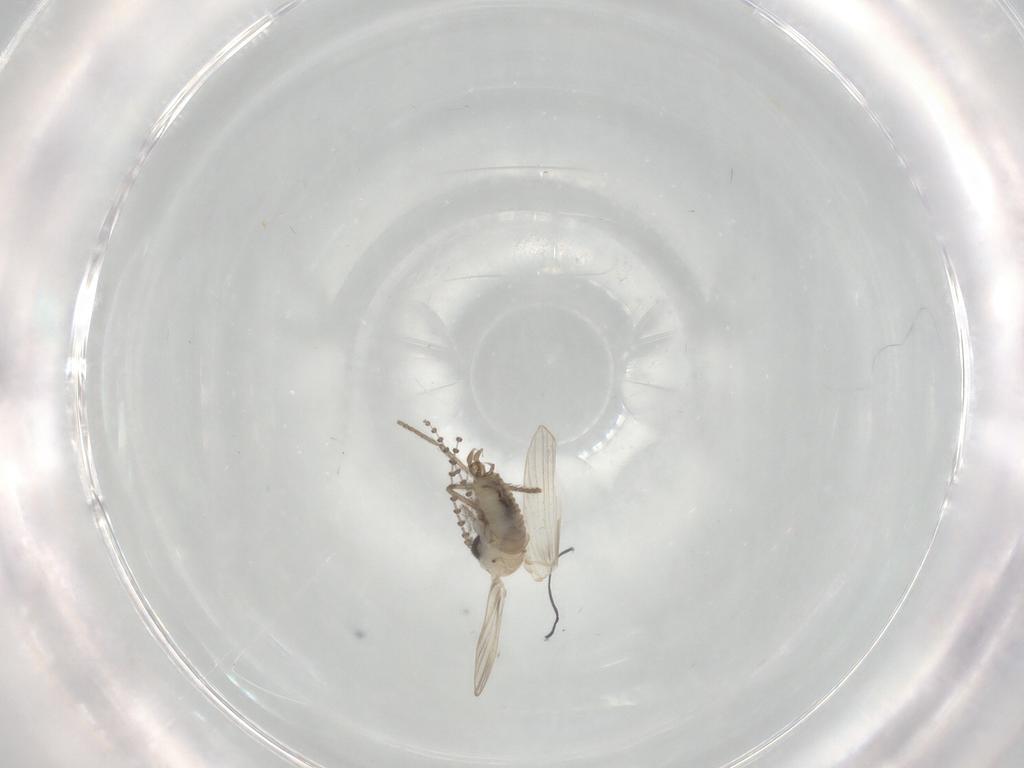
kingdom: Animalia
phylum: Arthropoda
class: Insecta
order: Diptera
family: Psychodidae
